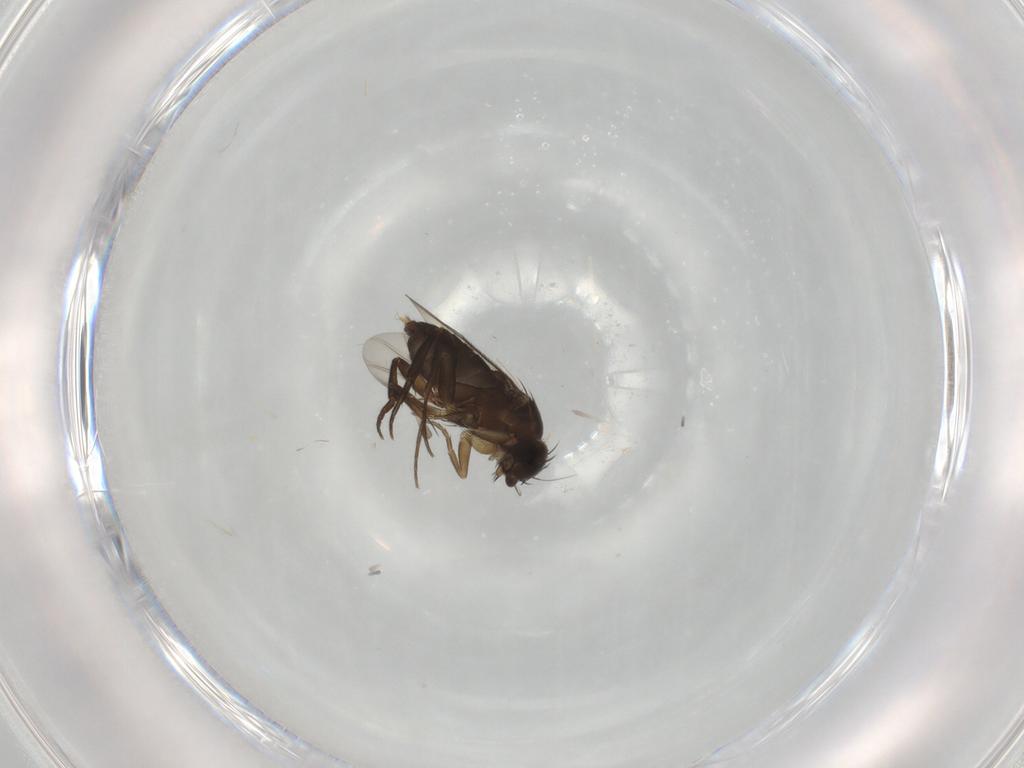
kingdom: Animalia
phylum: Arthropoda
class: Insecta
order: Diptera
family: Phoridae
